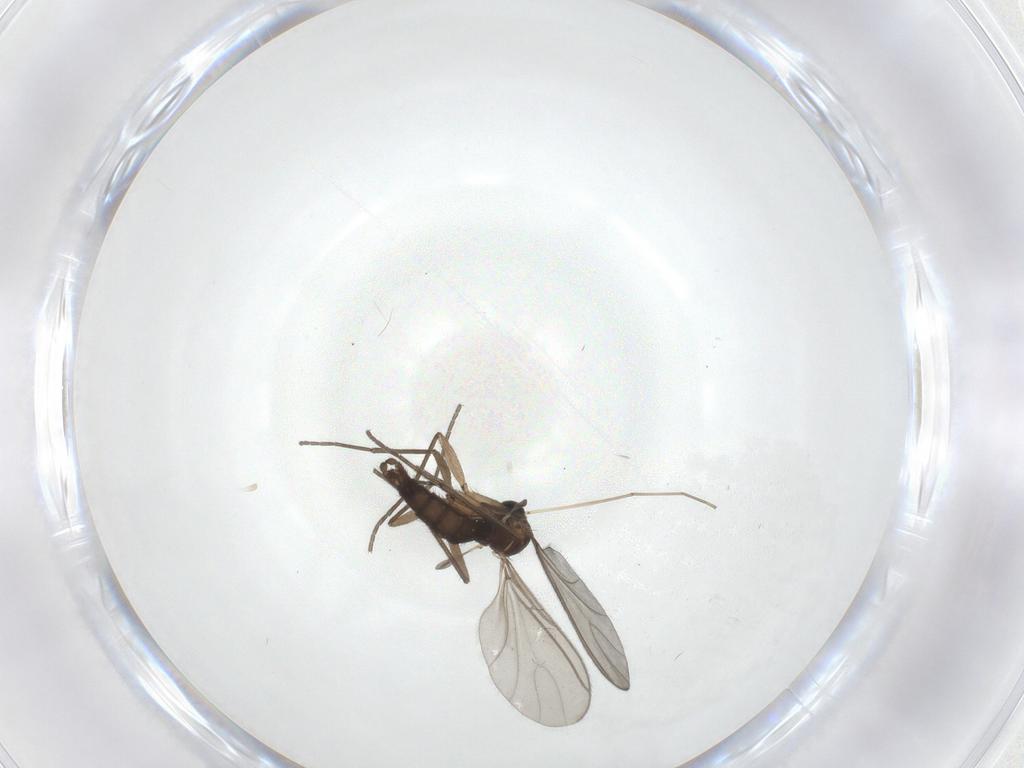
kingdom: Animalia
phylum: Arthropoda
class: Insecta
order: Diptera
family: Sciaridae
